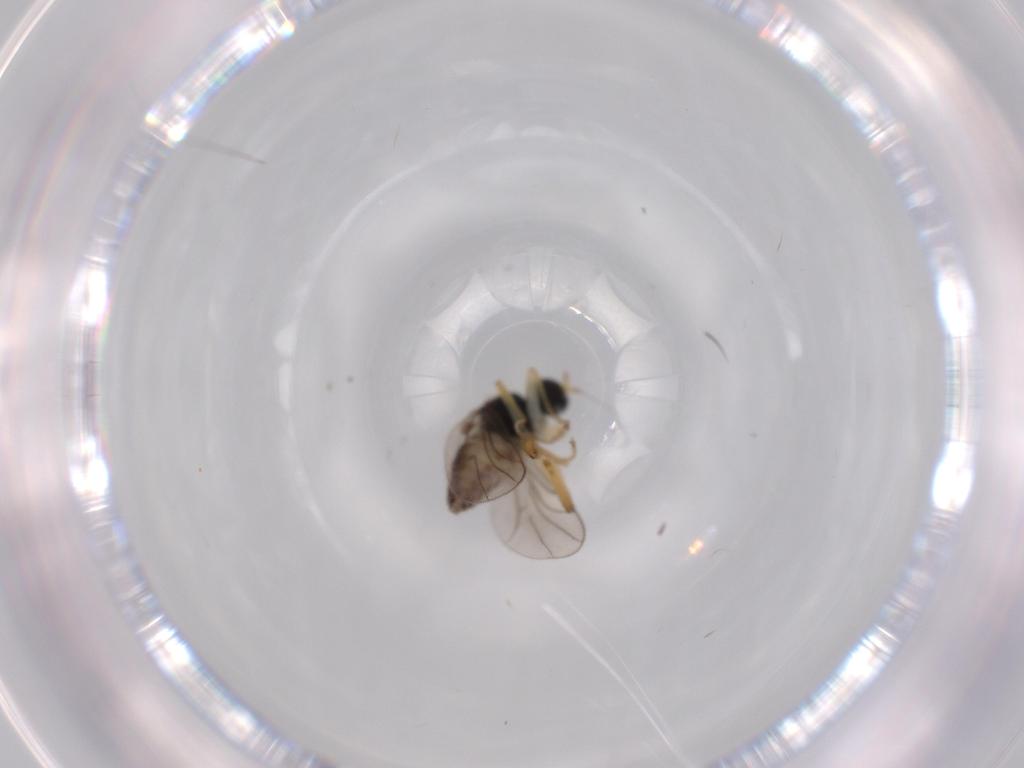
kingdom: Animalia
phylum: Arthropoda
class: Insecta
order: Diptera
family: Hybotidae
